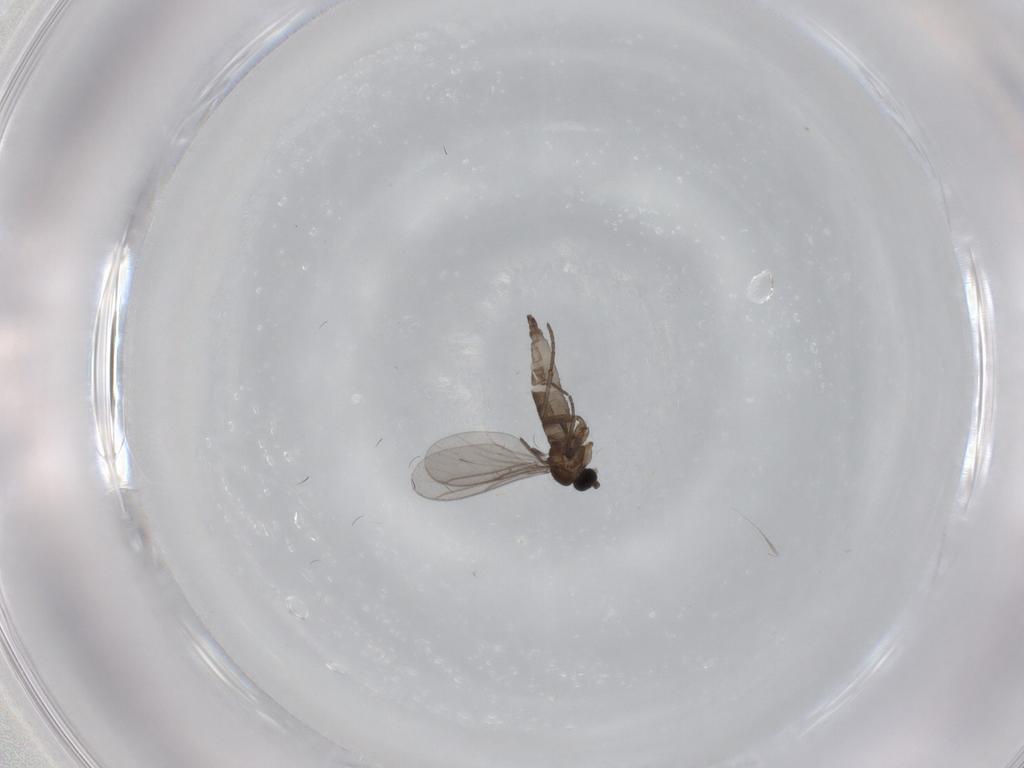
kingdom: Animalia
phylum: Arthropoda
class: Insecta
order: Diptera
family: Sciaridae
